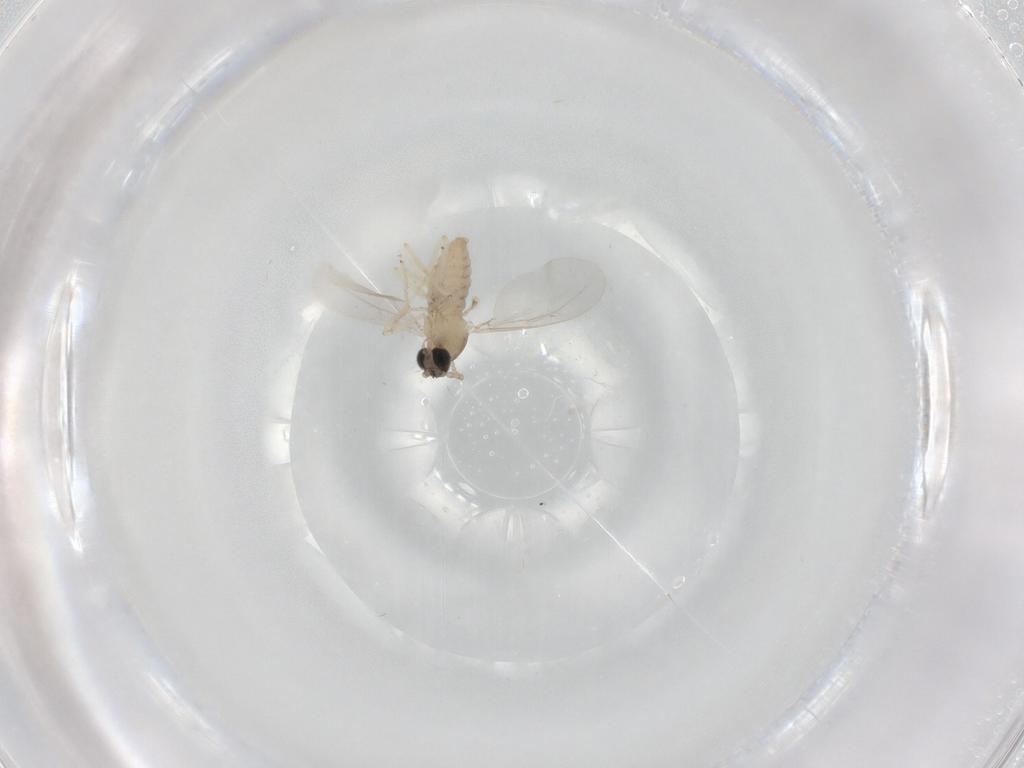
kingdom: Animalia
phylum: Arthropoda
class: Insecta
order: Diptera
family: Cecidomyiidae
